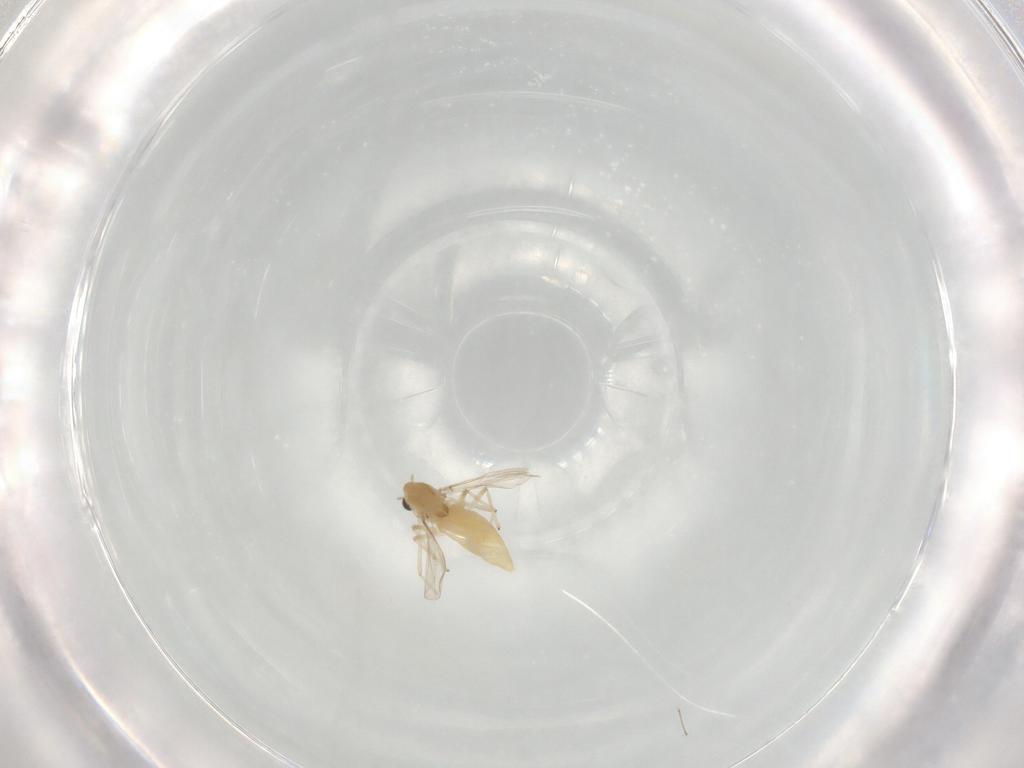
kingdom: Animalia
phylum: Arthropoda
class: Insecta
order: Diptera
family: Chironomidae
